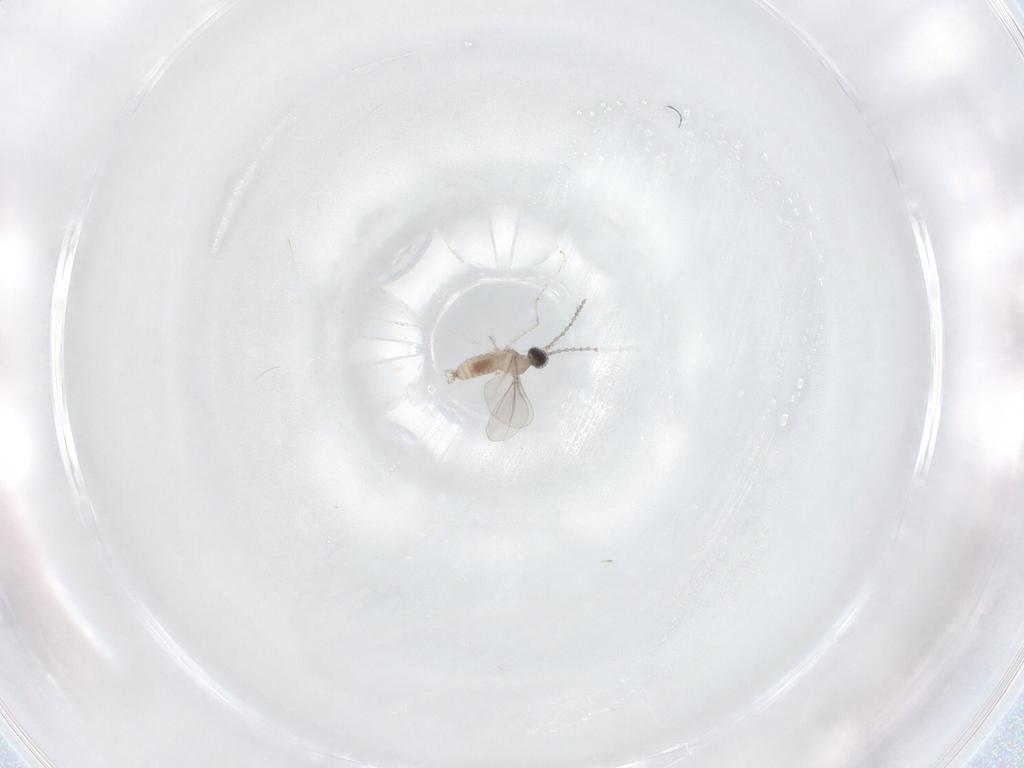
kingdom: Animalia
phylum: Arthropoda
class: Insecta
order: Diptera
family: Cecidomyiidae
